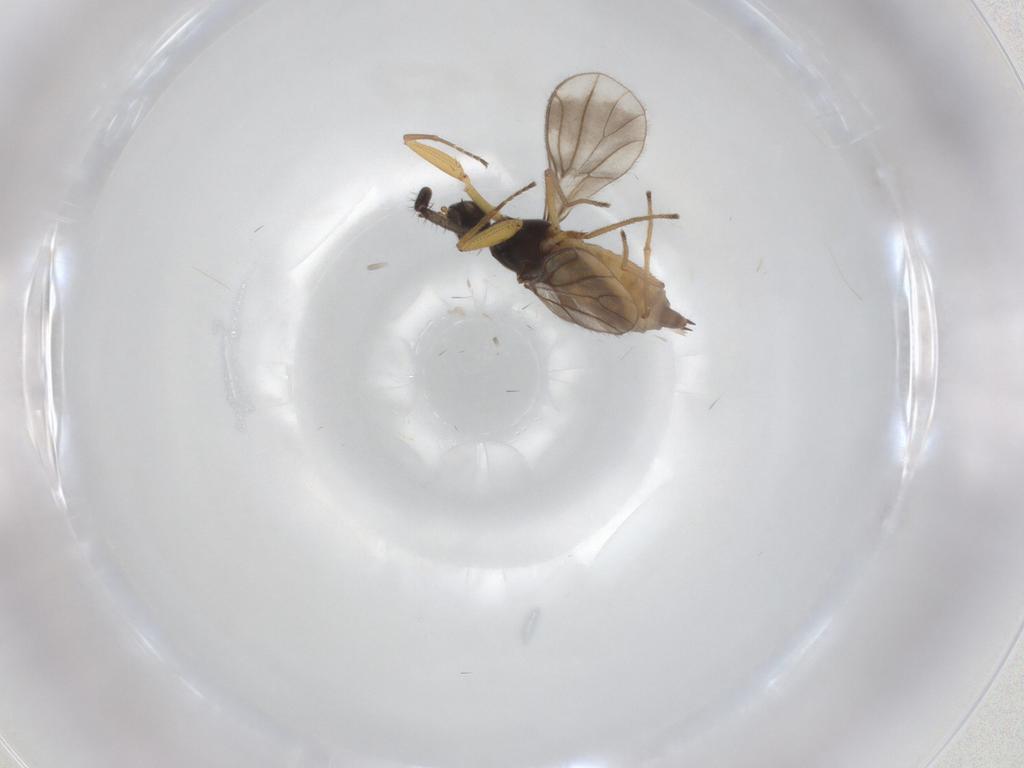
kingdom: Animalia
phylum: Arthropoda
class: Insecta
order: Diptera
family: Empididae
